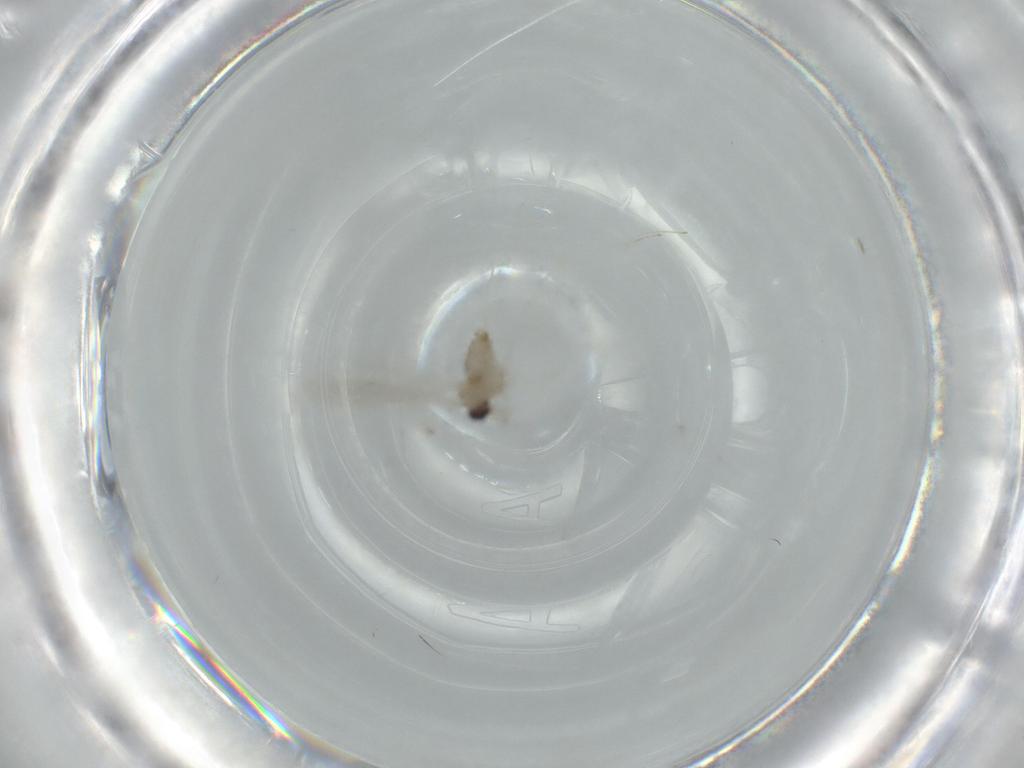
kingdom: Animalia
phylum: Arthropoda
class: Insecta
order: Diptera
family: Cecidomyiidae
